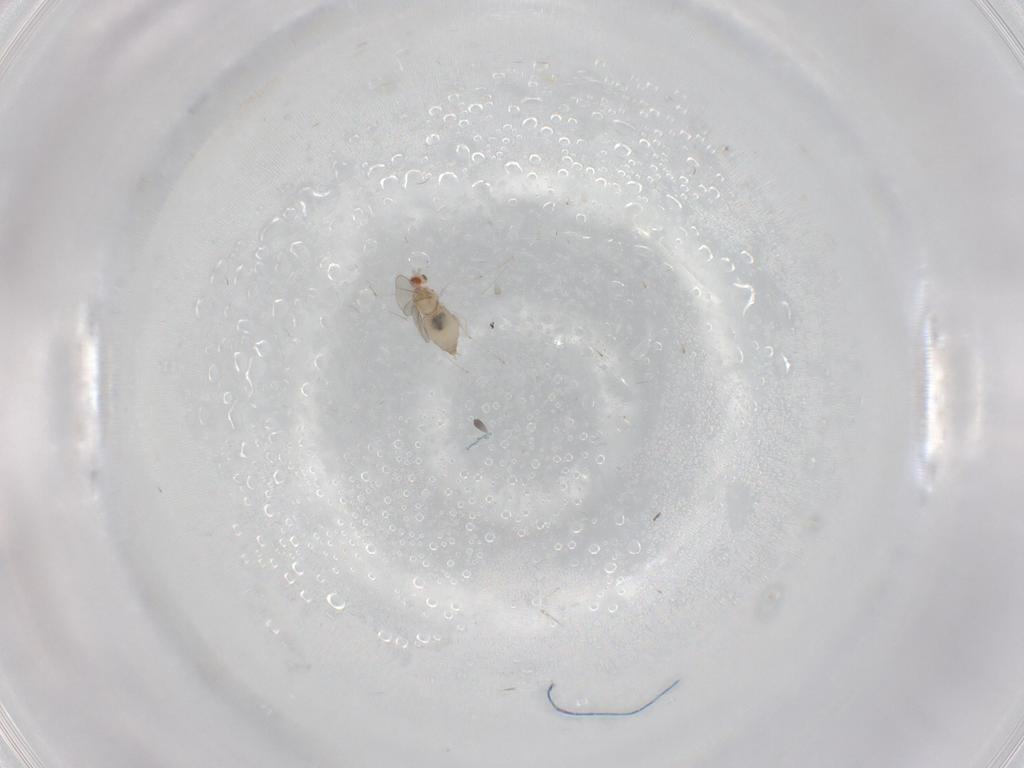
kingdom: Animalia
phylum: Arthropoda
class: Insecta
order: Diptera
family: Cecidomyiidae
